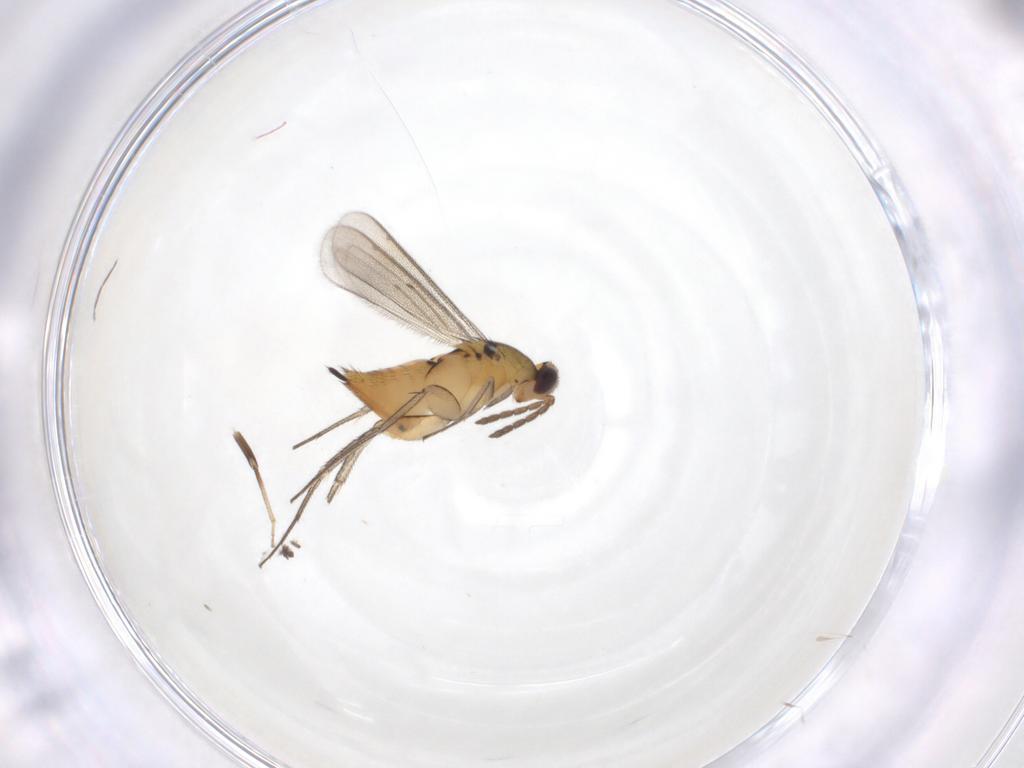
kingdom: Animalia
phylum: Arthropoda
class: Insecta
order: Hymenoptera
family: Eulophidae
